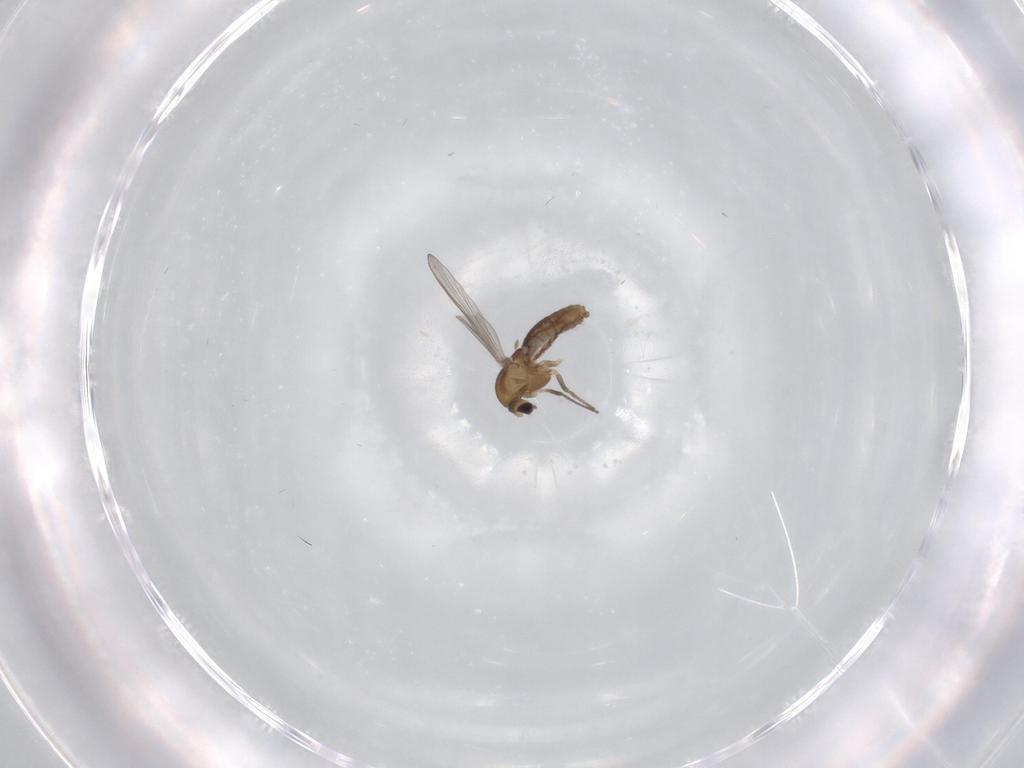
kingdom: Animalia
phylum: Arthropoda
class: Insecta
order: Diptera
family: Chironomidae
